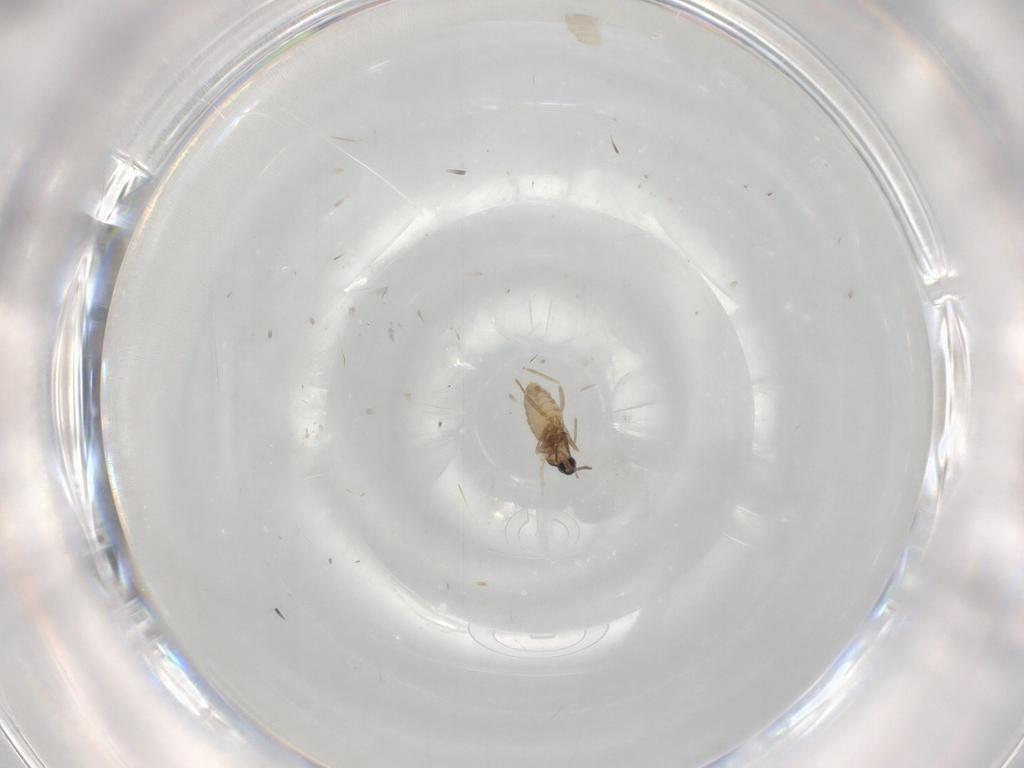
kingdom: Animalia
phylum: Arthropoda
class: Insecta
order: Diptera
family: Cecidomyiidae
